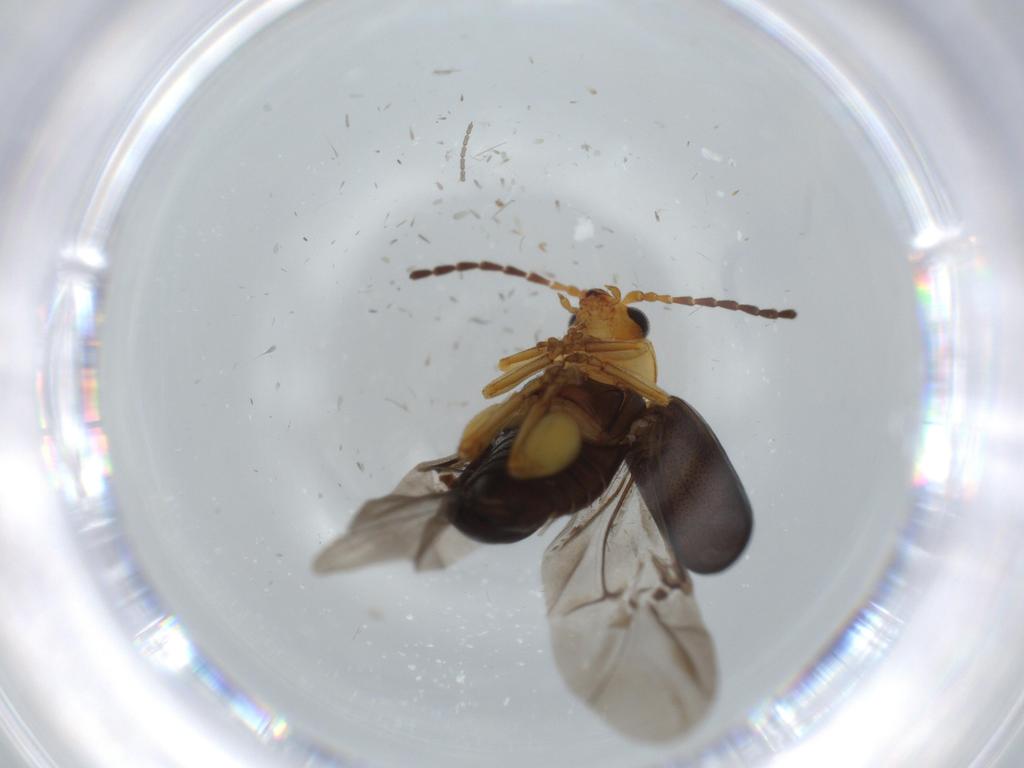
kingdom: Animalia
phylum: Arthropoda
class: Insecta
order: Coleoptera
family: Chrysomelidae
